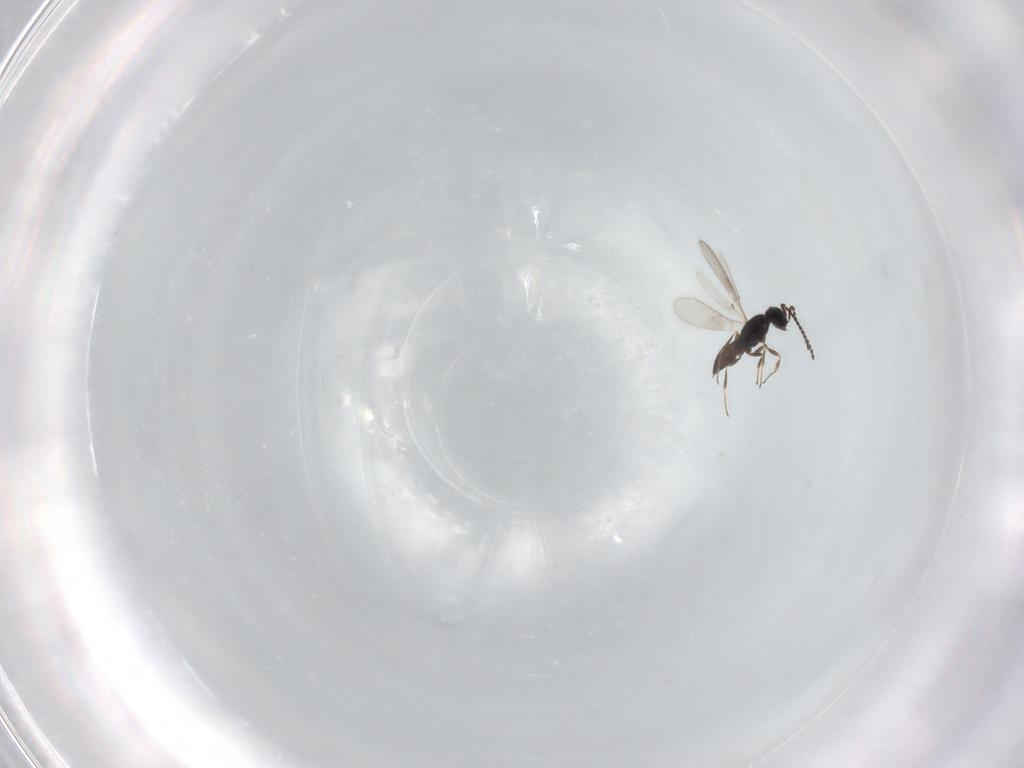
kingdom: Animalia
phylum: Arthropoda
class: Insecta
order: Hymenoptera
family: Scelionidae
